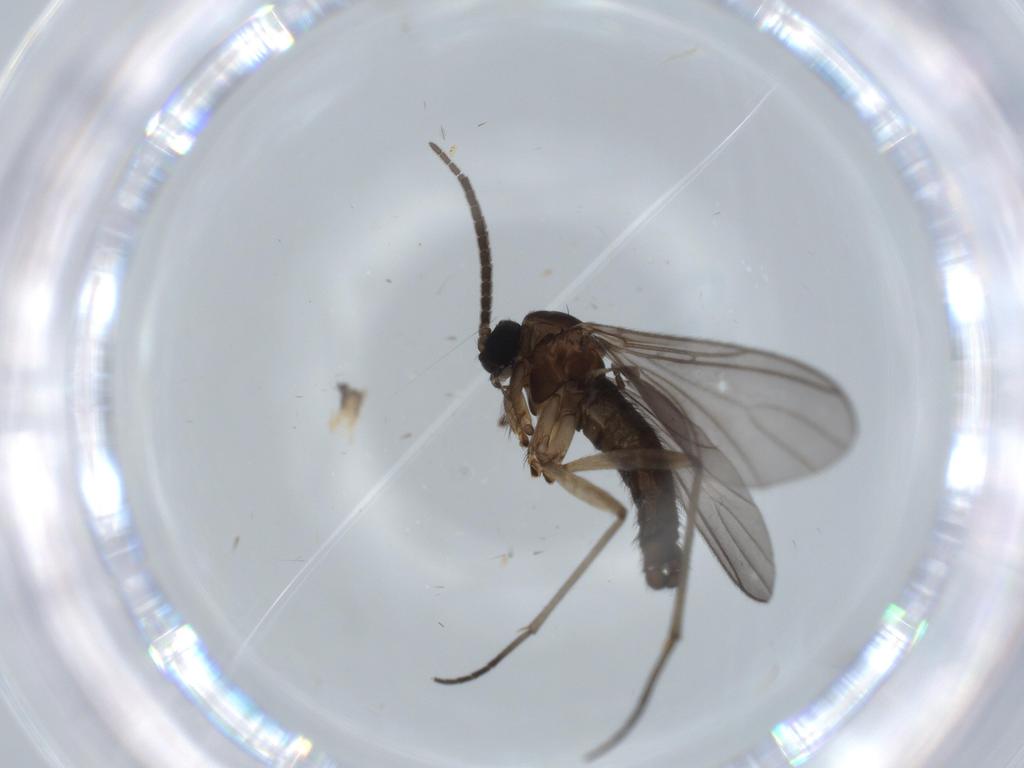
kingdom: Animalia
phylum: Arthropoda
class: Insecta
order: Diptera
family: Sciaridae
